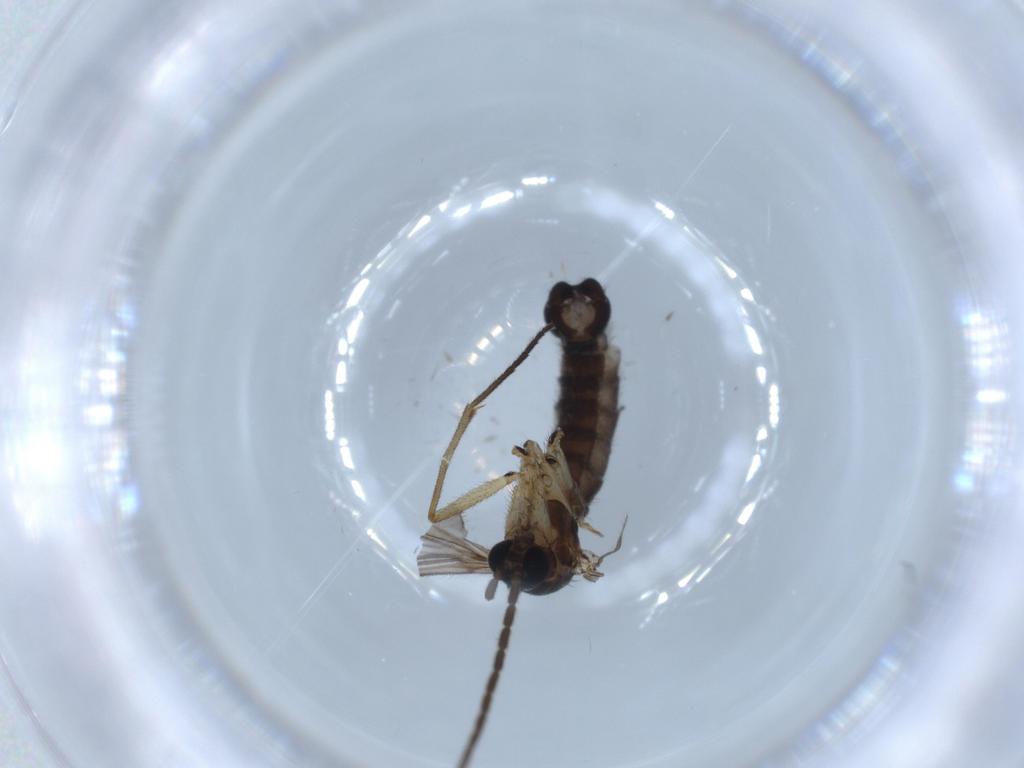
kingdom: Animalia
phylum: Arthropoda
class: Insecta
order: Diptera
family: Sciaridae
